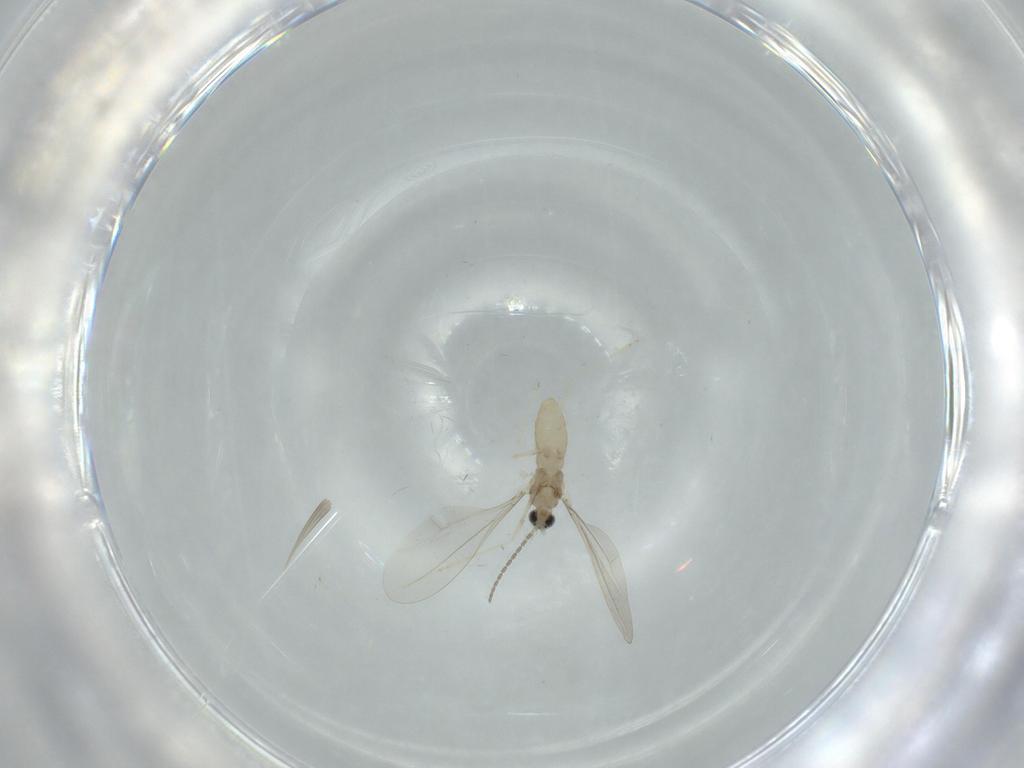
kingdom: Animalia
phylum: Arthropoda
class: Insecta
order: Diptera
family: Cecidomyiidae
